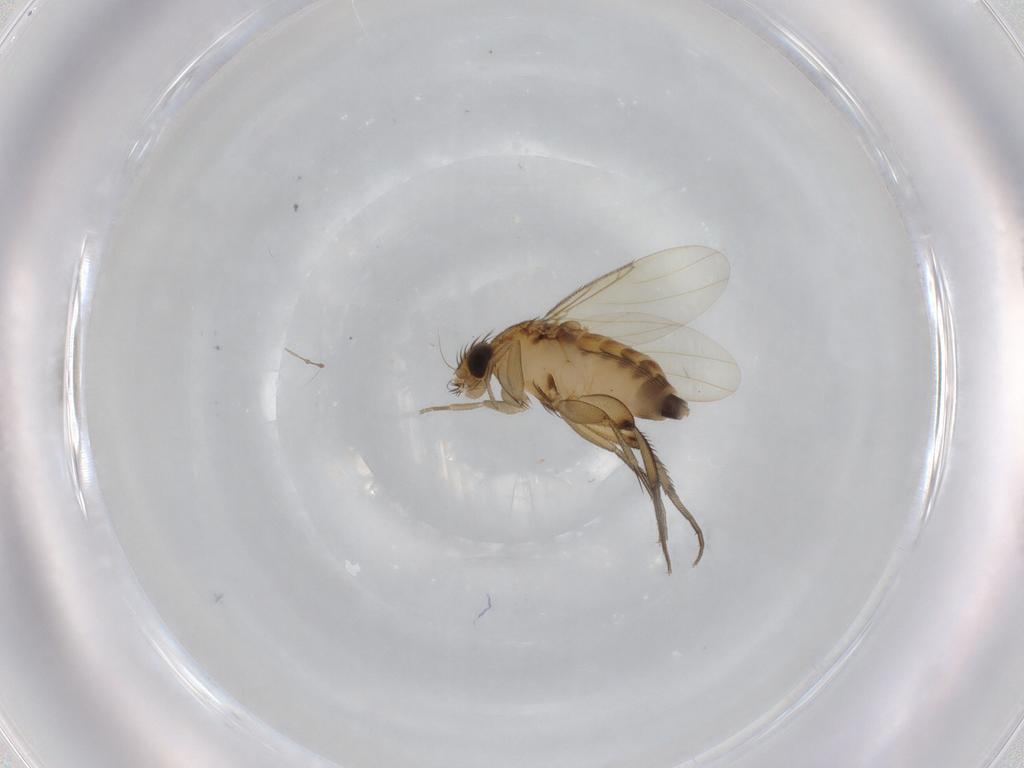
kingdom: Animalia
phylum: Arthropoda
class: Insecta
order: Diptera
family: Phoridae
